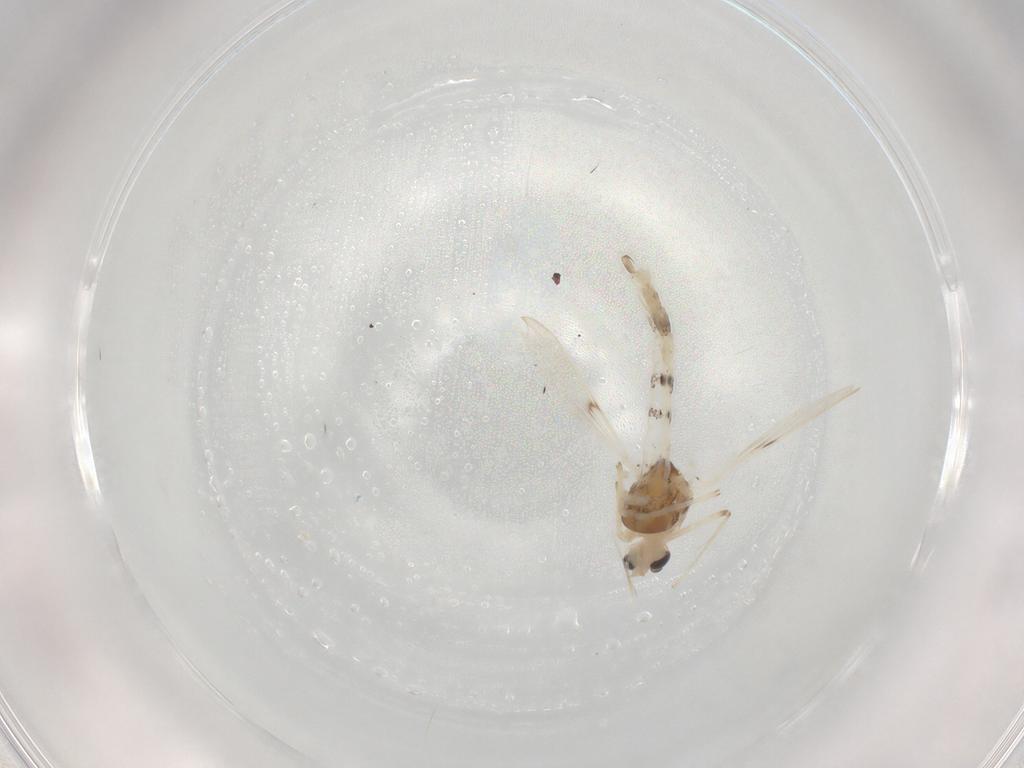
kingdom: Animalia
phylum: Arthropoda
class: Insecta
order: Diptera
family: Chironomidae
